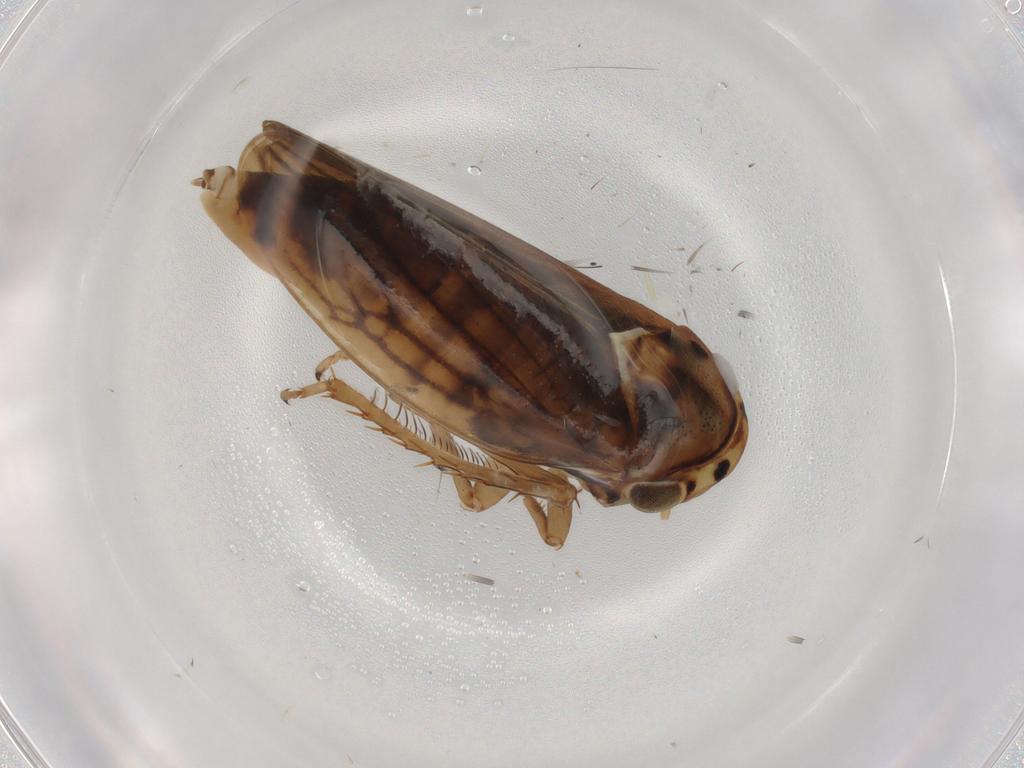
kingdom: Animalia
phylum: Arthropoda
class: Insecta
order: Hemiptera
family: Cicadellidae
